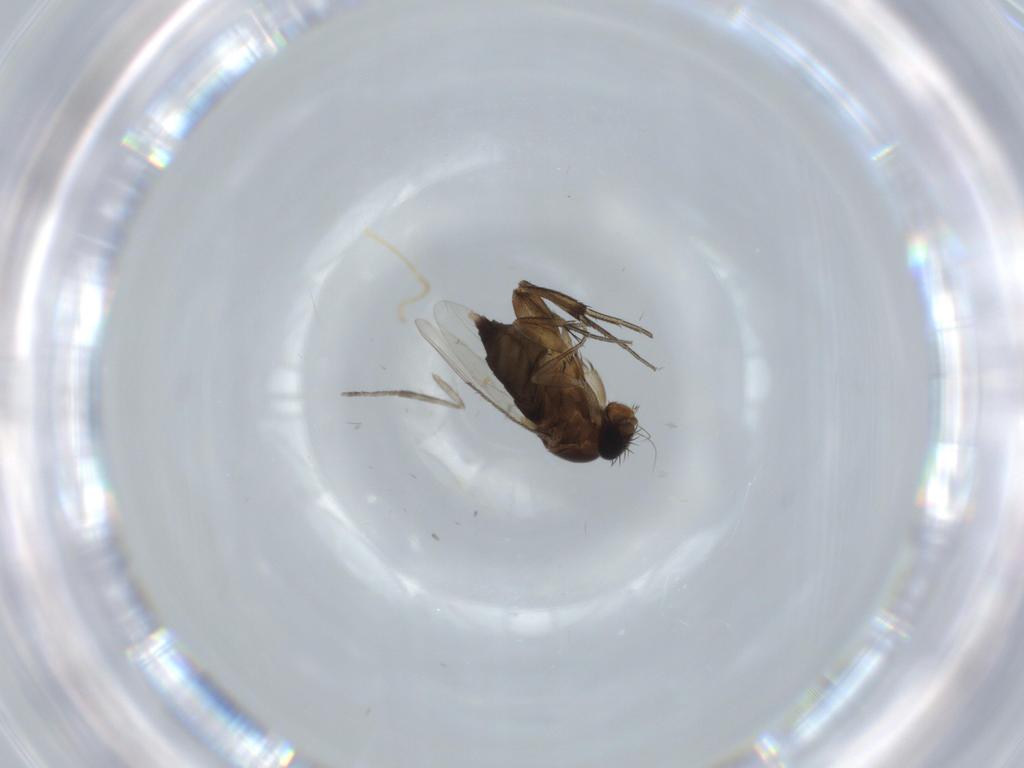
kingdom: Animalia
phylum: Arthropoda
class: Insecta
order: Diptera
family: Phoridae
